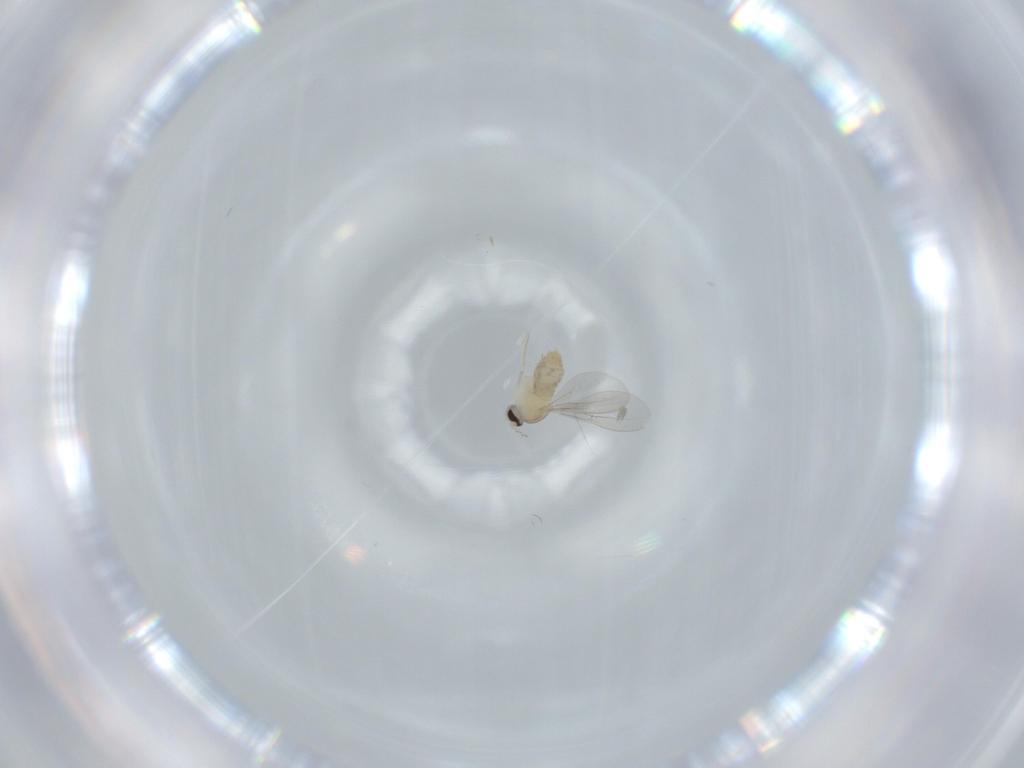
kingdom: Animalia
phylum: Arthropoda
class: Insecta
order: Diptera
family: Cecidomyiidae
